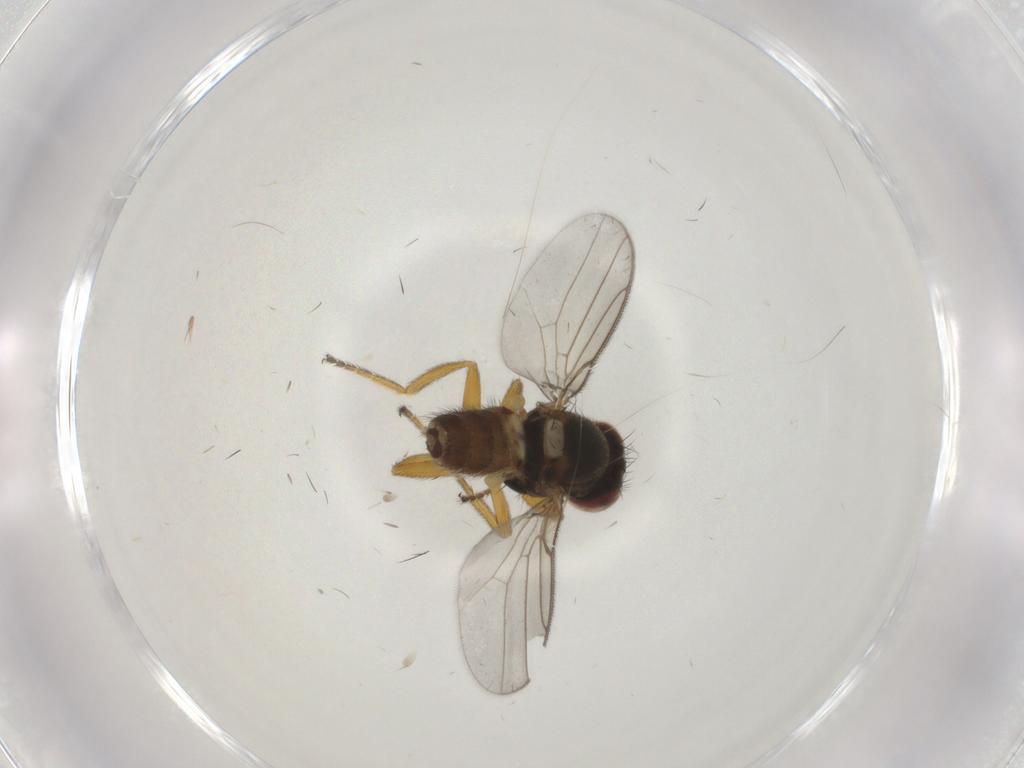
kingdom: Animalia
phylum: Arthropoda
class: Insecta
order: Diptera
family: Chloropidae
